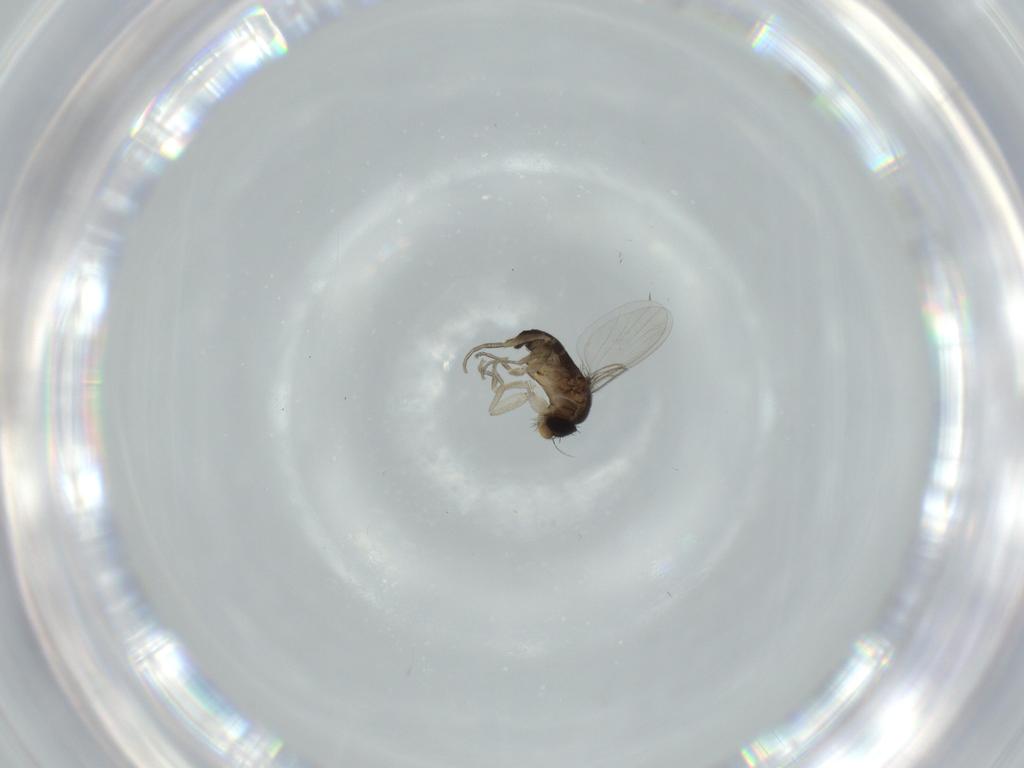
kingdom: Animalia
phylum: Arthropoda
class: Insecta
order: Diptera
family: Phoridae
